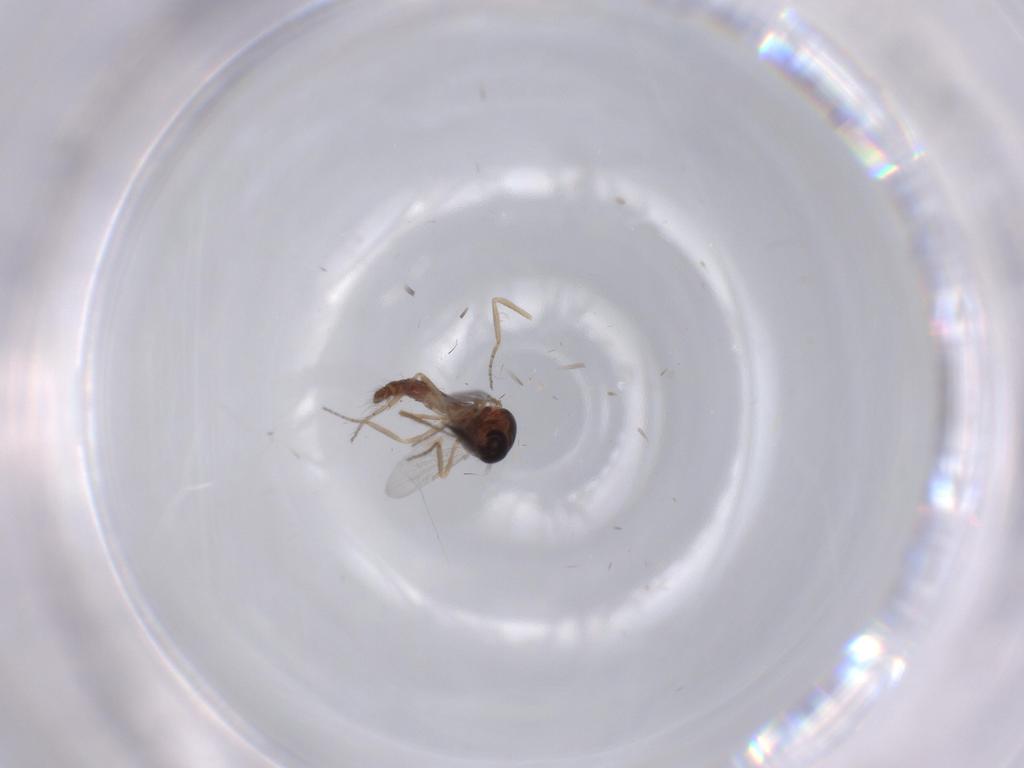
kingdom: Animalia
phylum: Arthropoda
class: Insecta
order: Diptera
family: Ceratopogonidae
